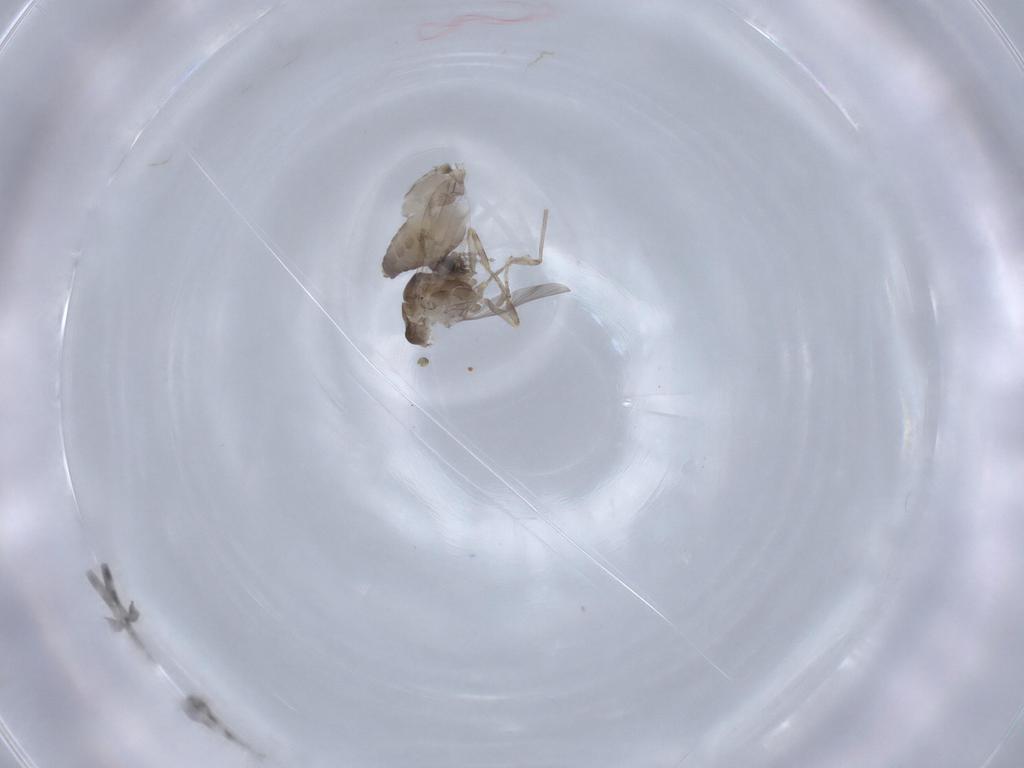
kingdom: Animalia
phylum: Arthropoda
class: Insecta
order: Diptera
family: Ceratopogonidae
